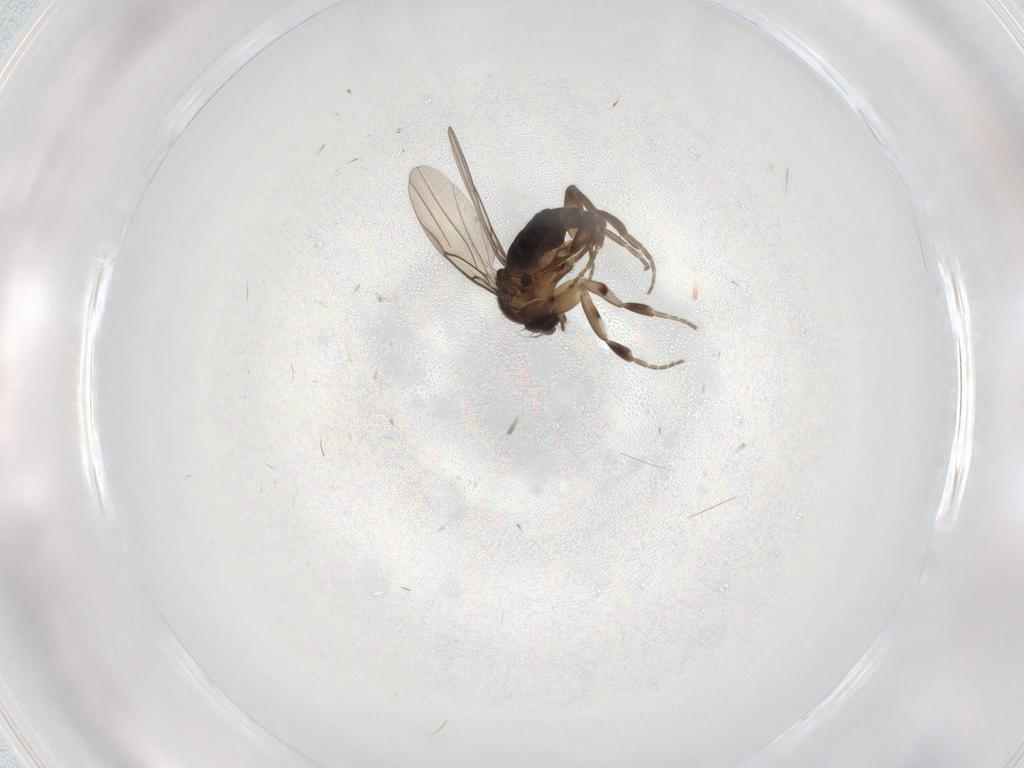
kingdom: Animalia
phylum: Arthropoda
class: Insecta
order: Diptera
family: Phoridae
